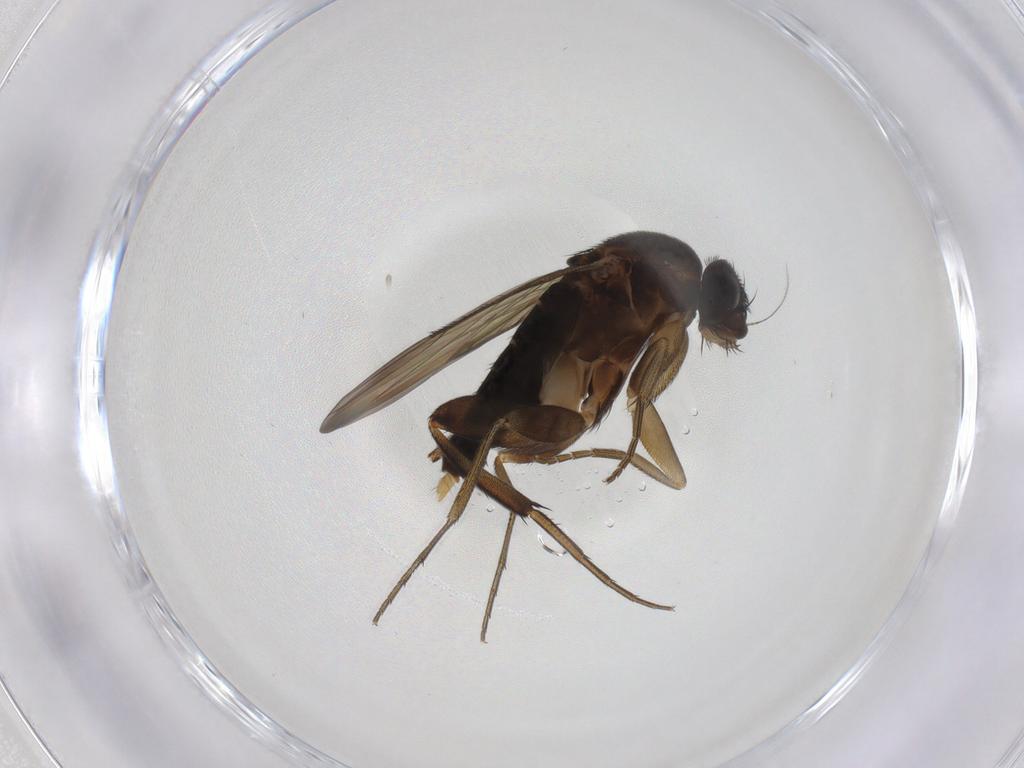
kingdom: Animalia
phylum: Arthropoda
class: Insecta
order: Diptera
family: Phoridae
